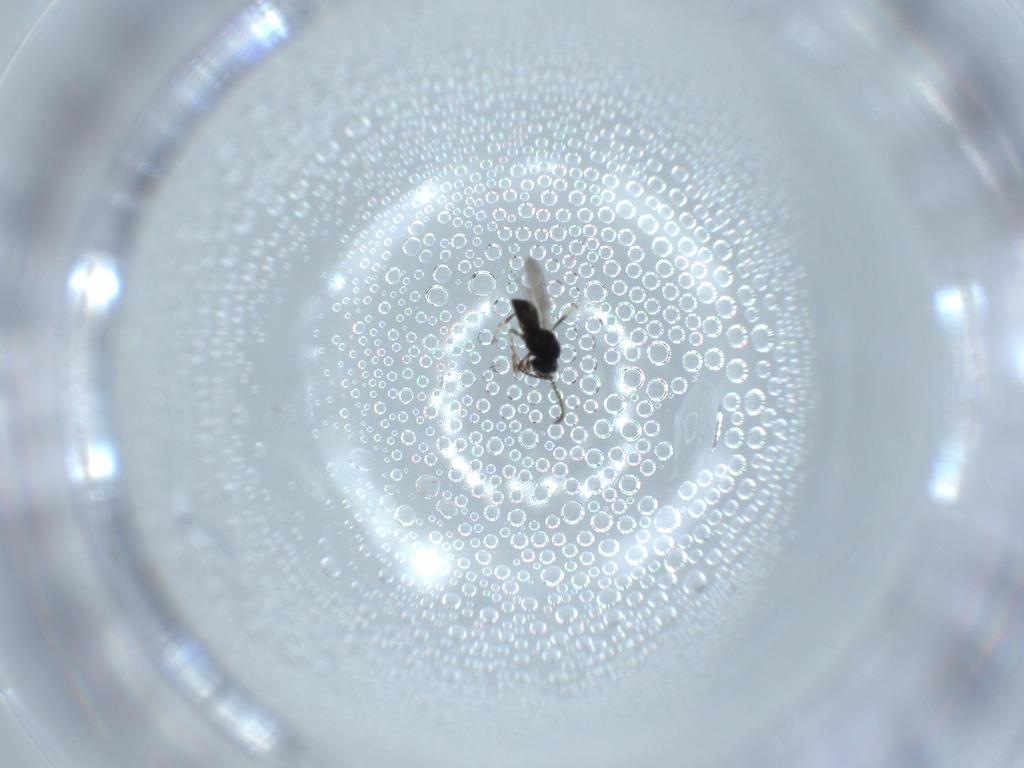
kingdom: Animalia
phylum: Arthropoda
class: Insecta
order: Hymenoptera
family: Scelionidae
